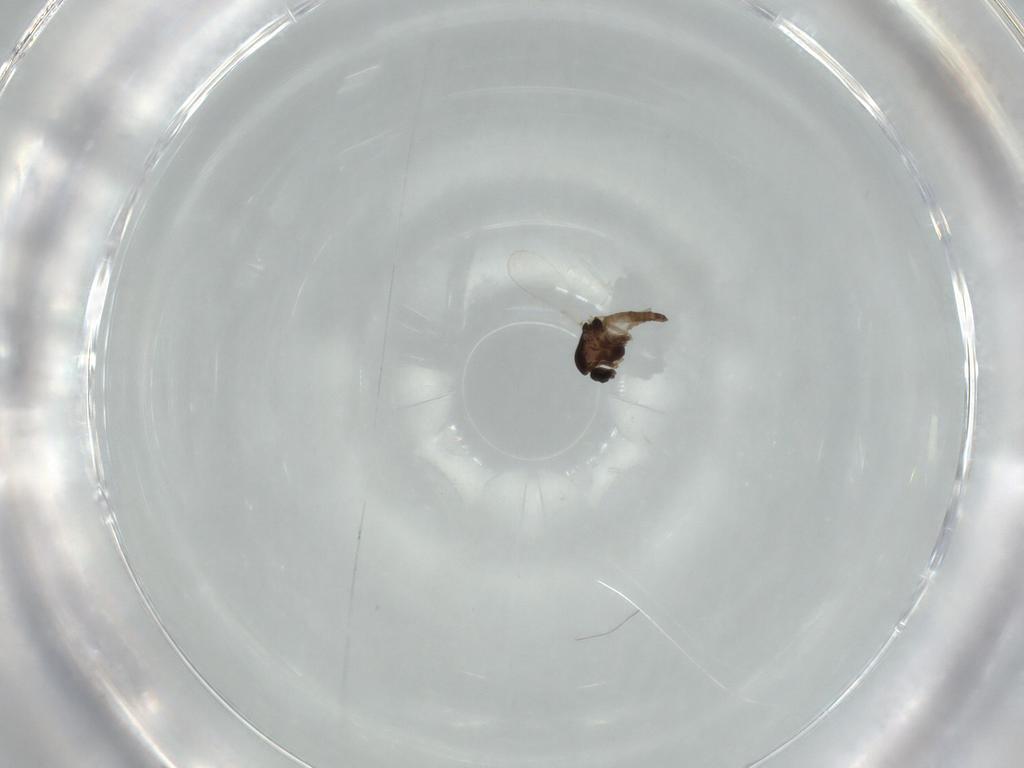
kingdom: Animalia
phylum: Arthropoda
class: Insecta
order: Diptera
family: Chironomidae
